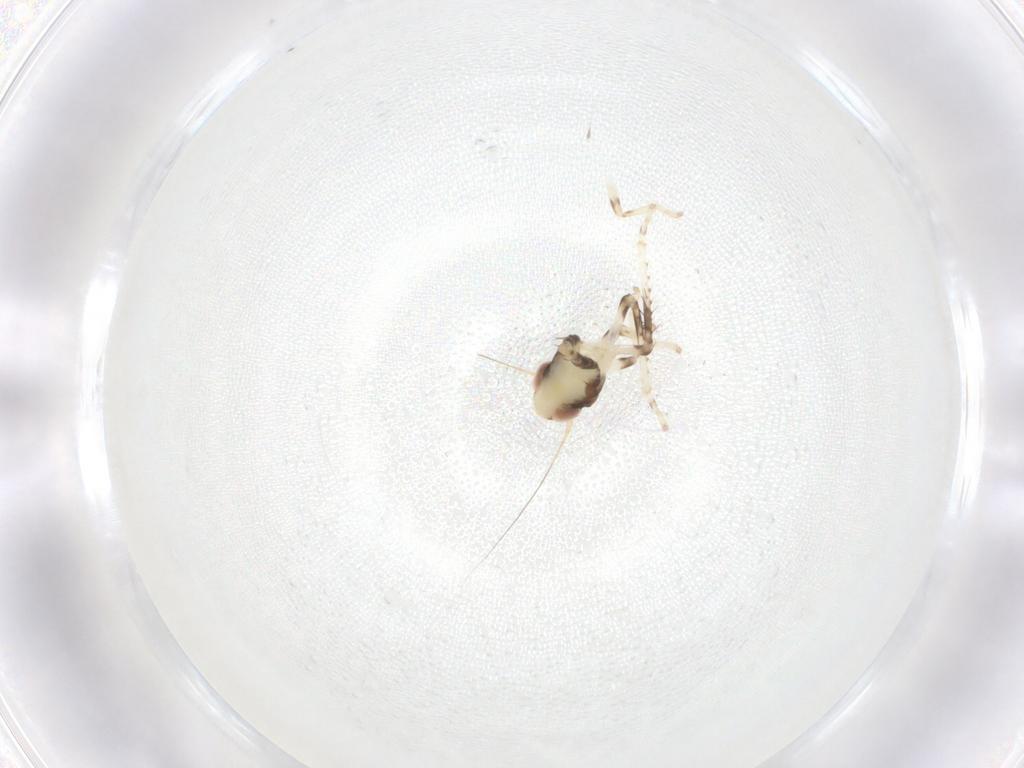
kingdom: Animalia
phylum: Arthropoda
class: Insecta
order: Hemiptera
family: Cicadellidae
